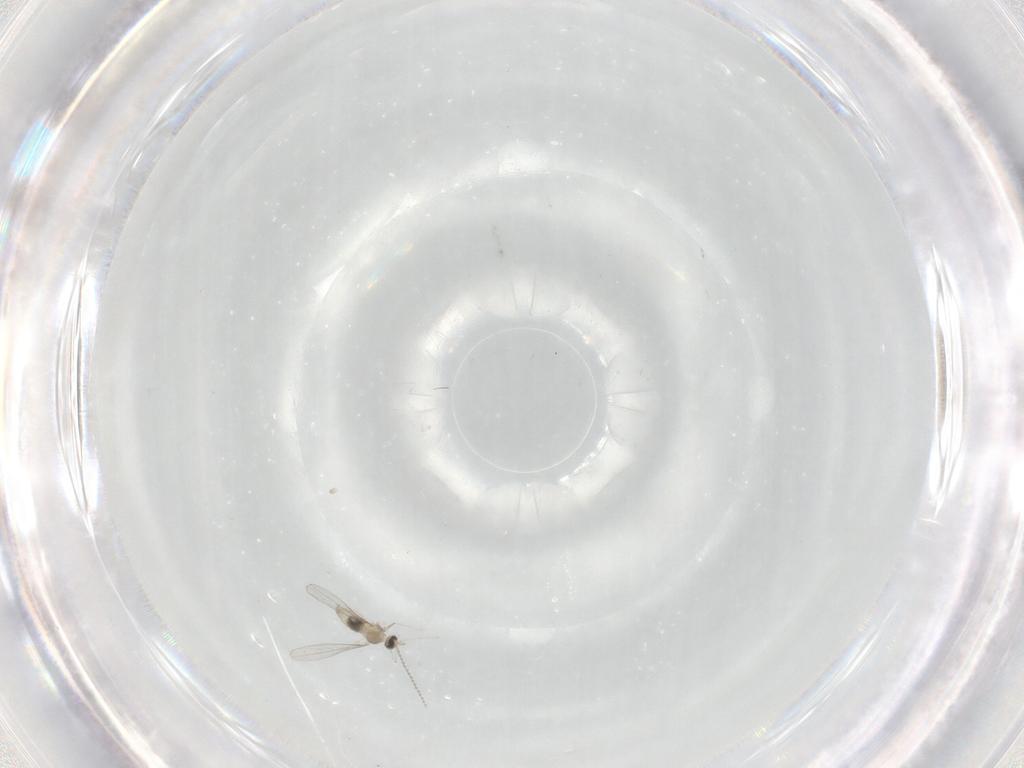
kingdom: Animalia
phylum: Arthropoda
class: Insecta
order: Diptera
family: Cecidomyiidae
